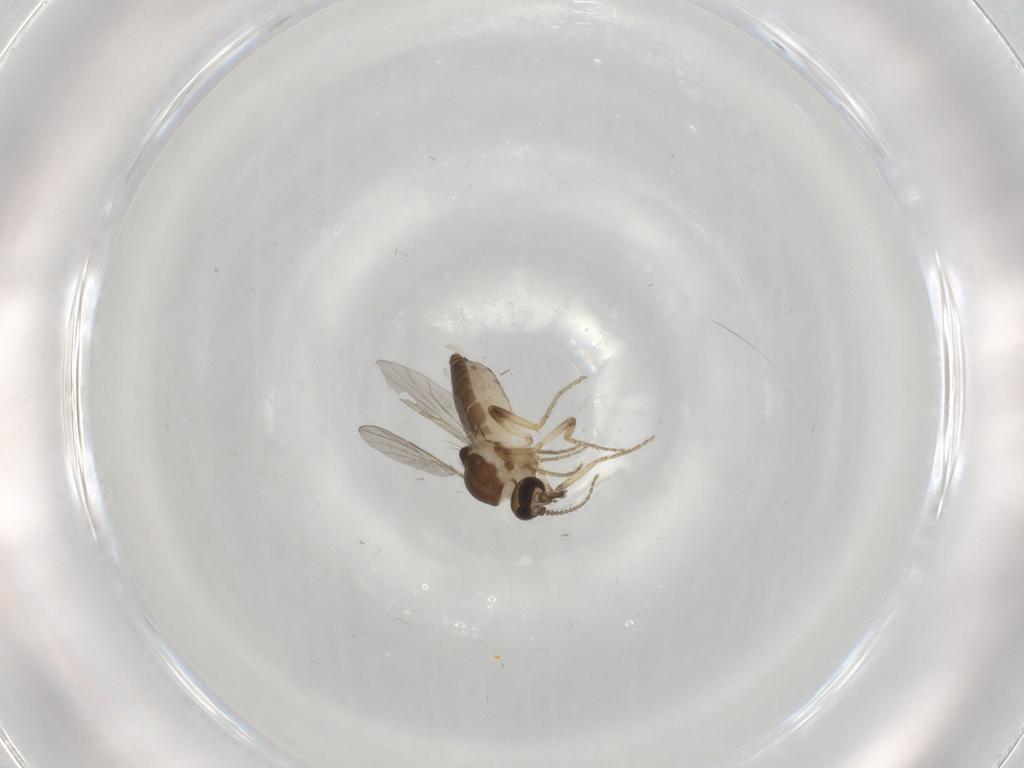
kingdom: Animalia
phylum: Arthropoda
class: Insecta
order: Diptera
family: Ceratopogonidae
